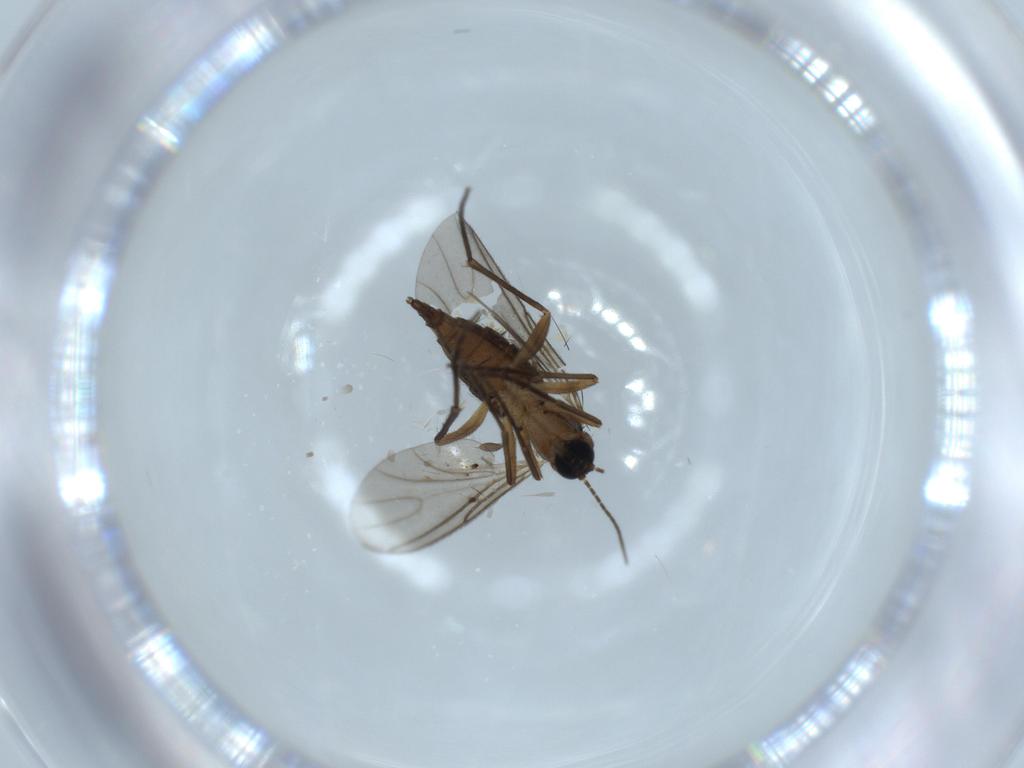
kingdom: Animalia
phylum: Arthropoda
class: Insecta
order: Diptera
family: Sciaridae
